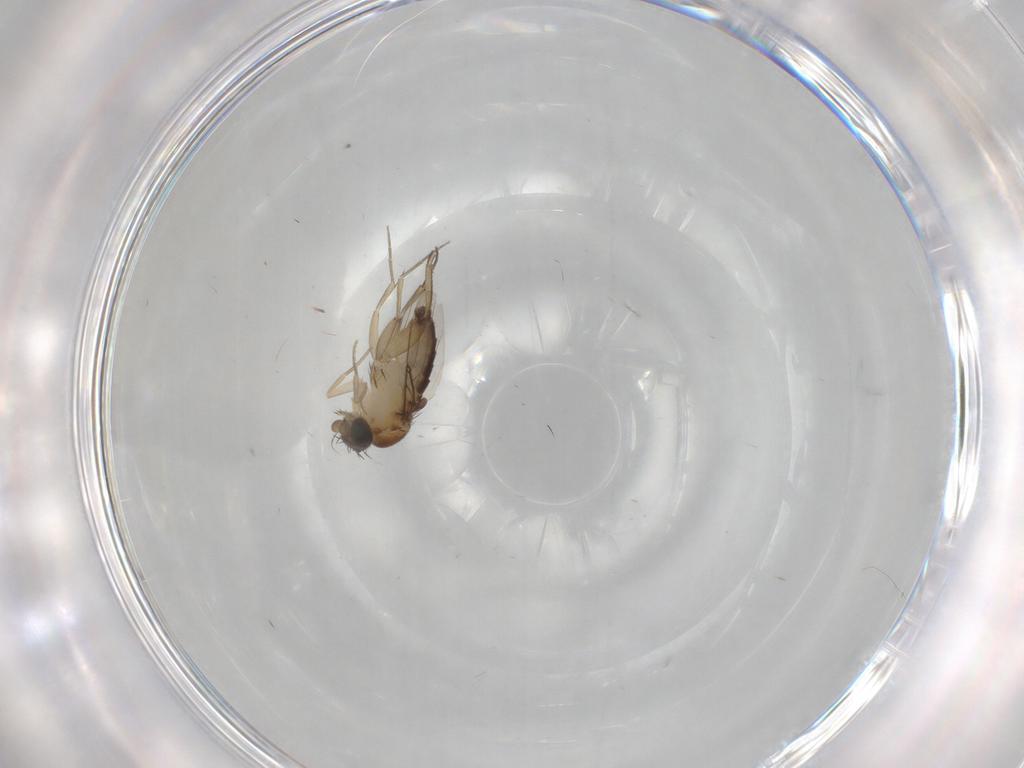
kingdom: Animalia
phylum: Arthropoda
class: Insecta
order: Diptera
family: Phoridae
